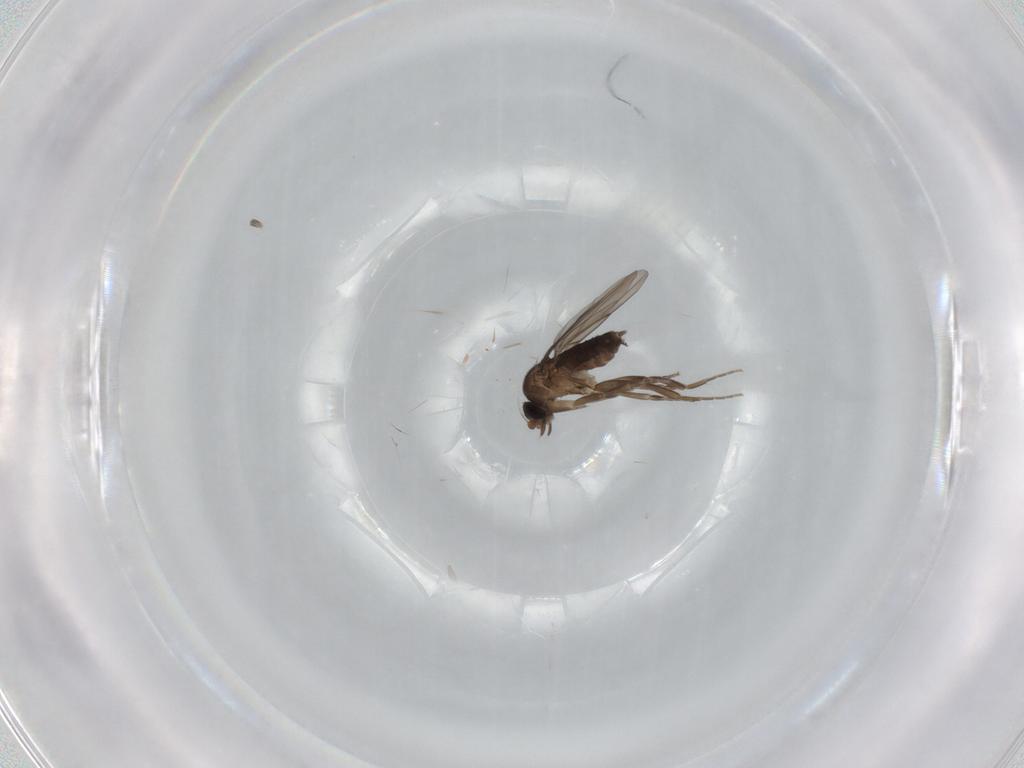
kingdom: Animalia
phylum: Arthropoda
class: Insecta
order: Diptera
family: Phoridae
